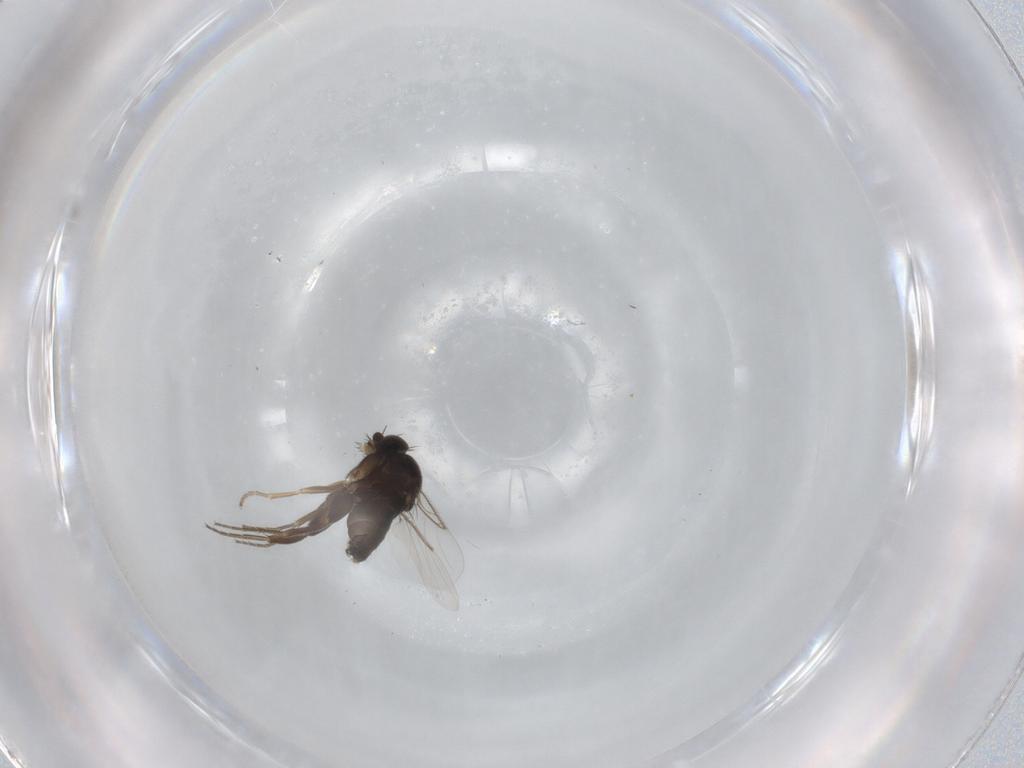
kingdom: Animalia
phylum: Arthropoda
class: Insecta
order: Diptera
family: Phoridae
